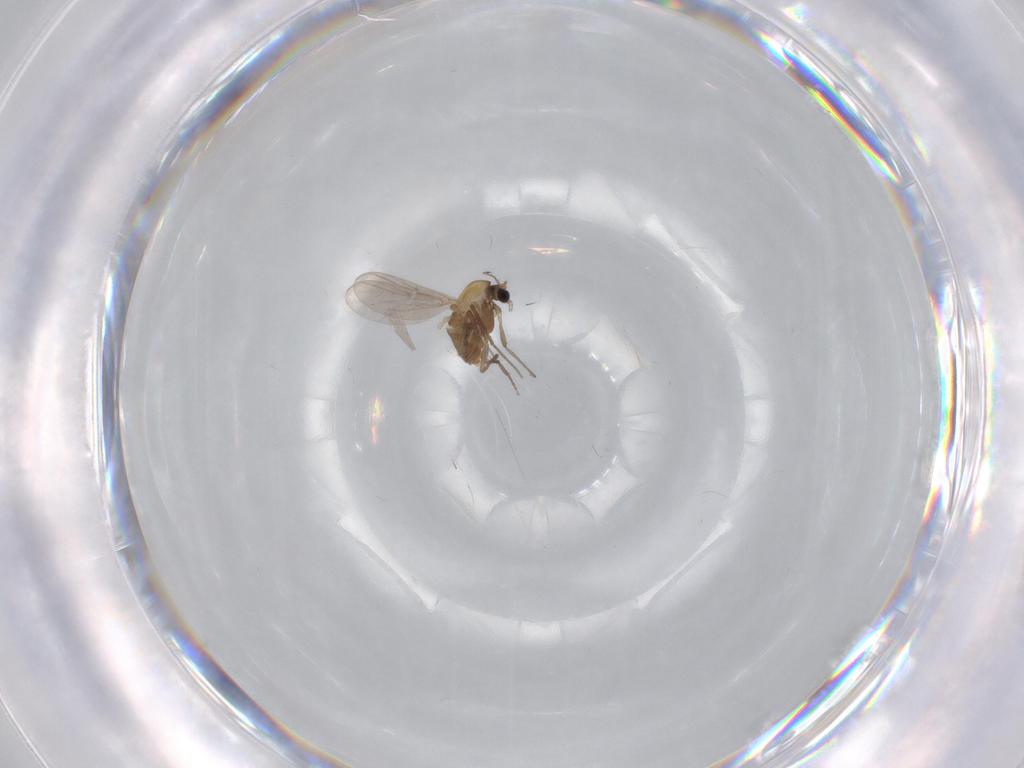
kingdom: Animalia
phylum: Arthropoda
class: Insecta
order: Diptera
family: Chironomidae
